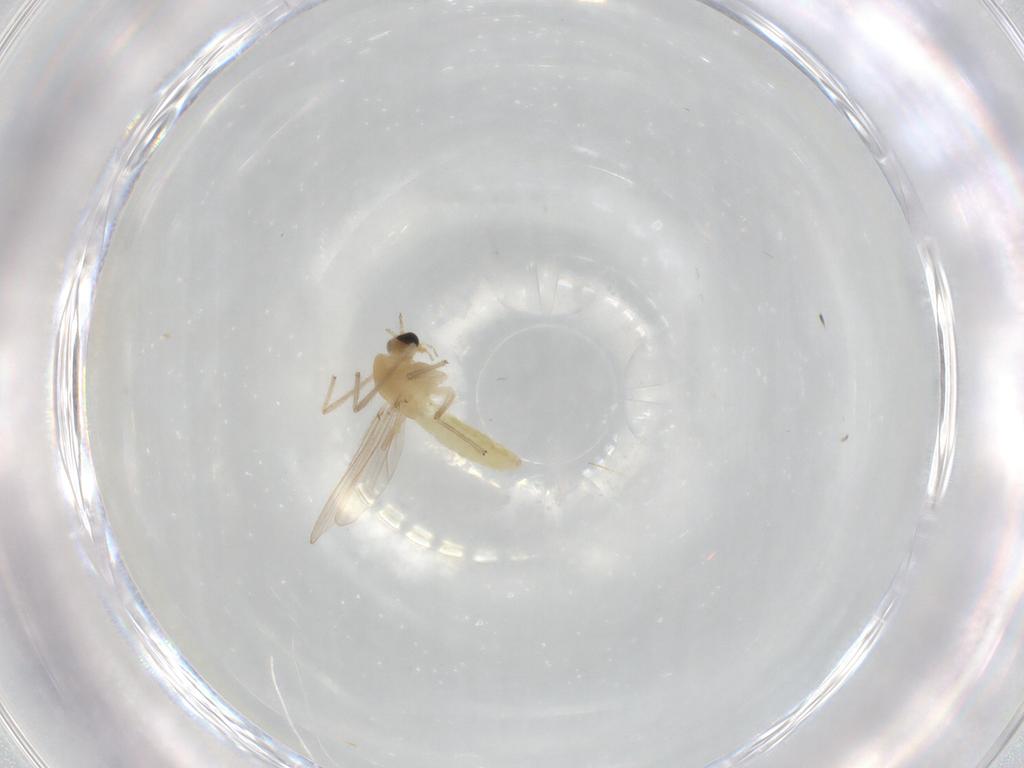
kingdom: Animalia
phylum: Arthropoda
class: Insecta
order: Diptera
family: Chironomidae
